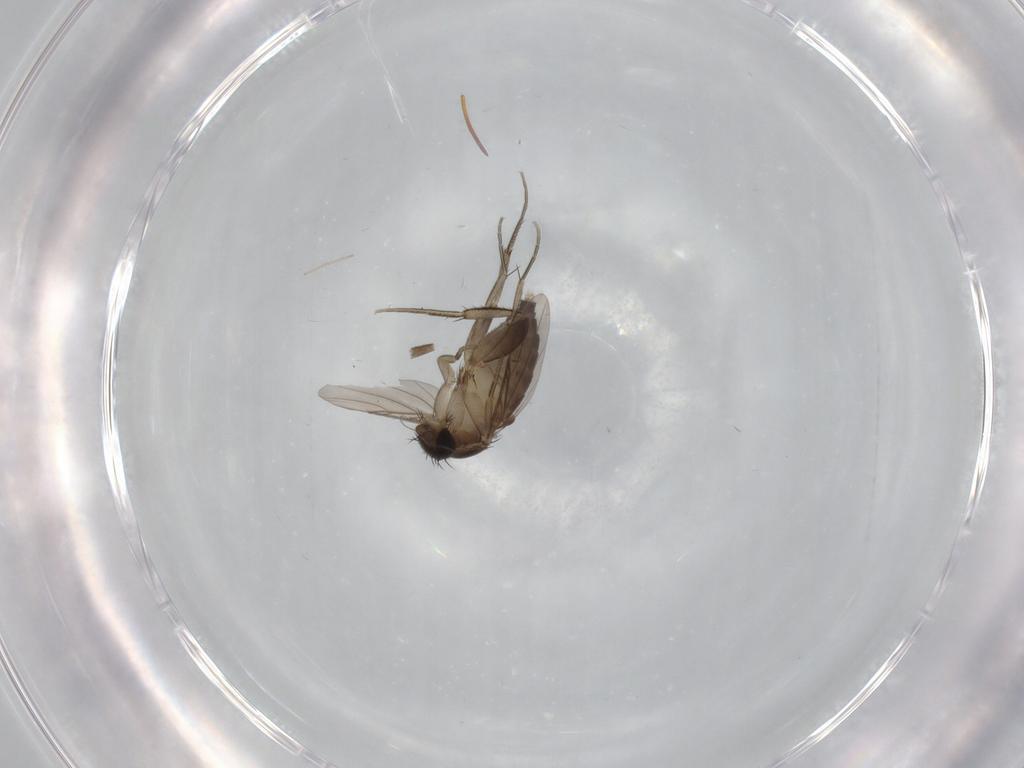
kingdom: Animalia
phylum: Arthropoda
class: Insecta
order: Diptera
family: Phoridae
